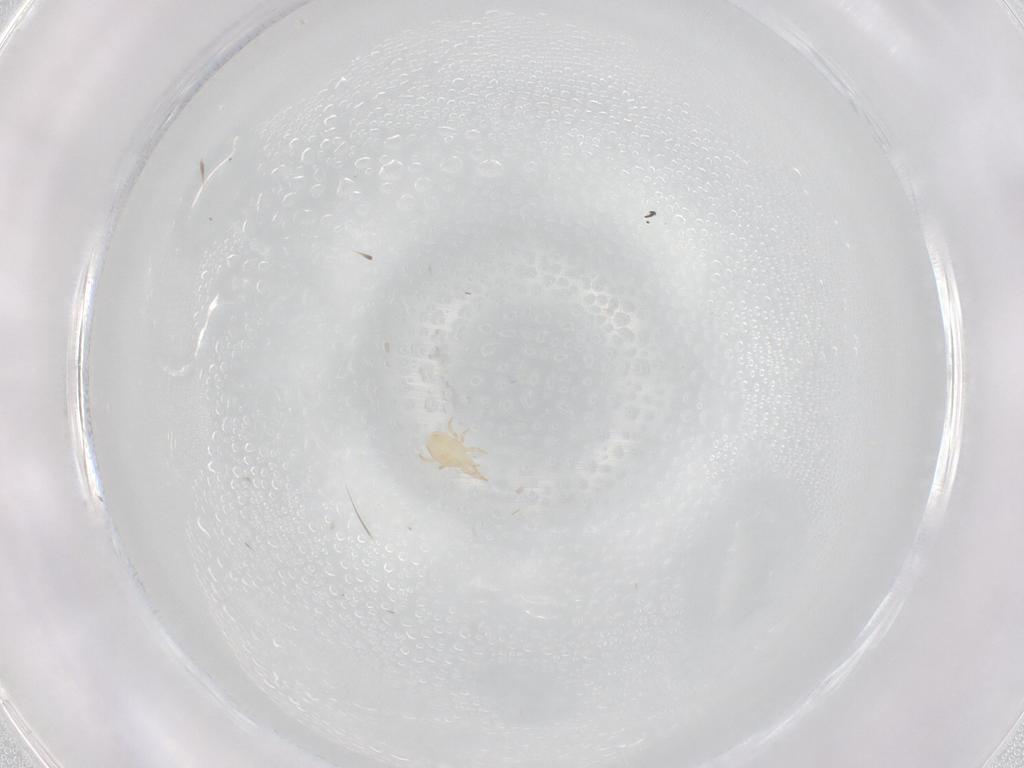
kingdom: Animalia
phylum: Arthropoda
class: Arachnida
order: Mesostigmata
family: Phytoseiidae
